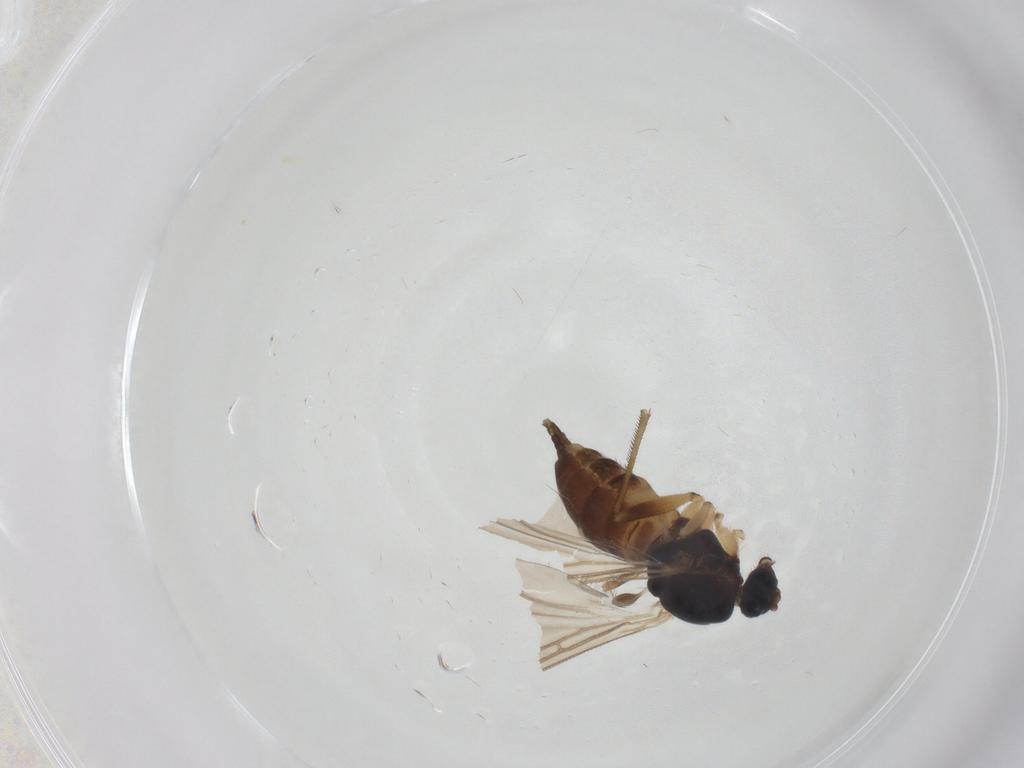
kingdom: Animalia
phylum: Arthropoda
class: Insecta
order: Diptera
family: Sciaridae
